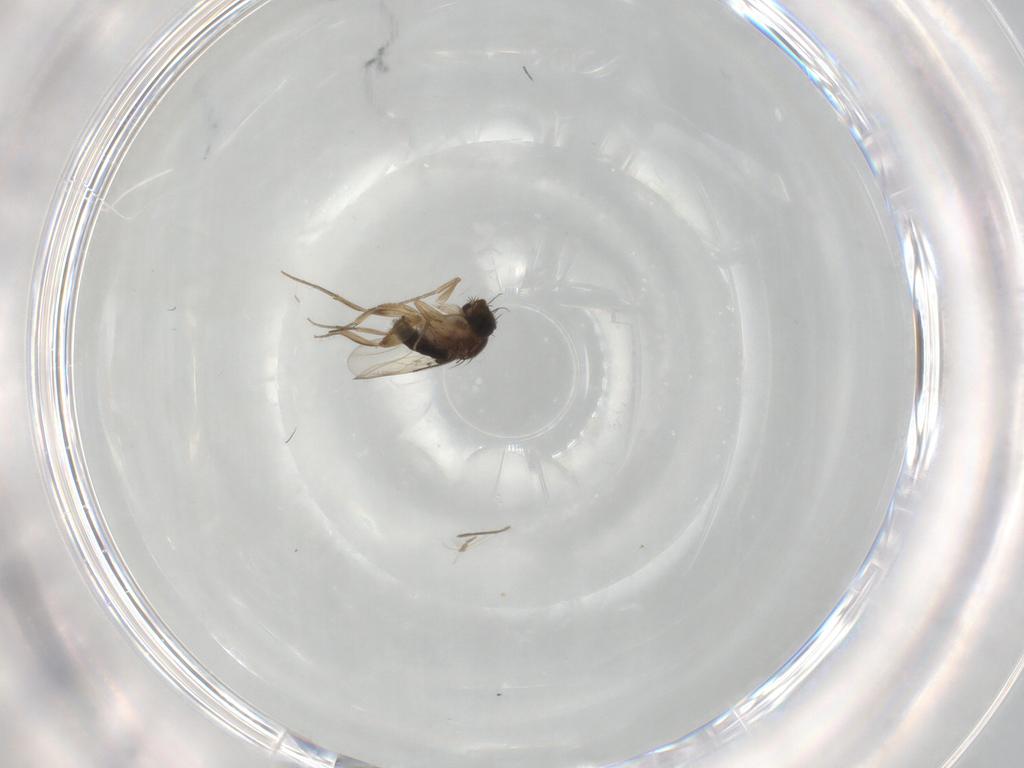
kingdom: Animalia
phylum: Arthropoda
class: Insecta
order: Diptera
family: Phoridae
